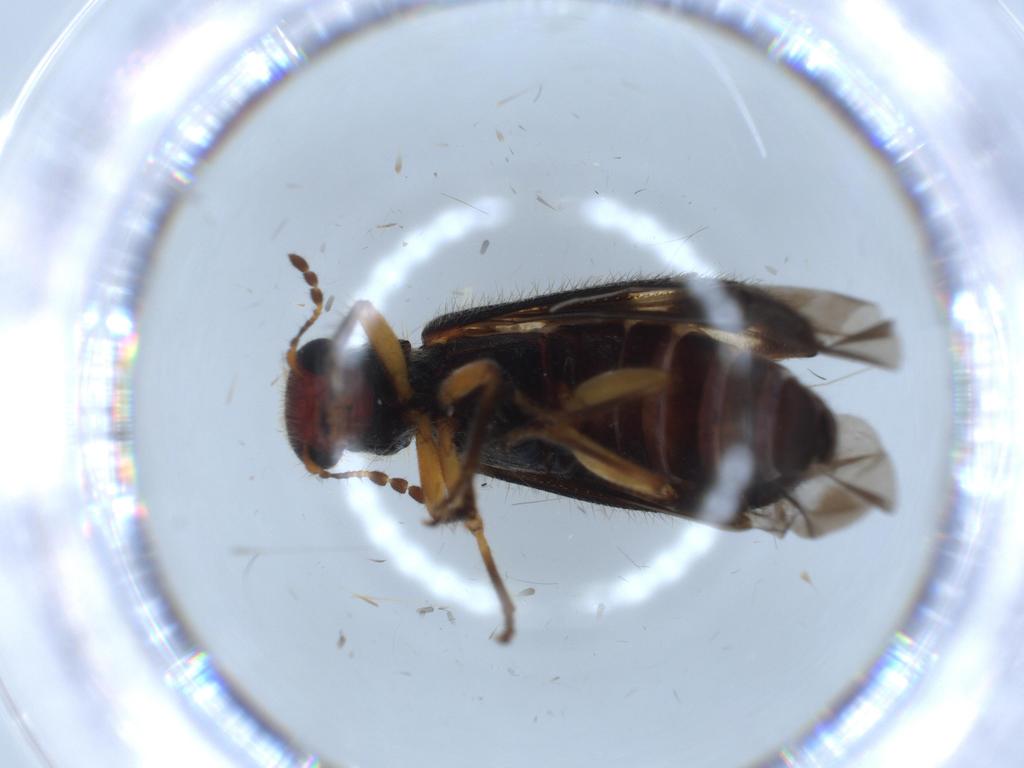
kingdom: Animalia
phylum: Arthropoda
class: Insecta
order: Coleoptera
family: Cleridae
